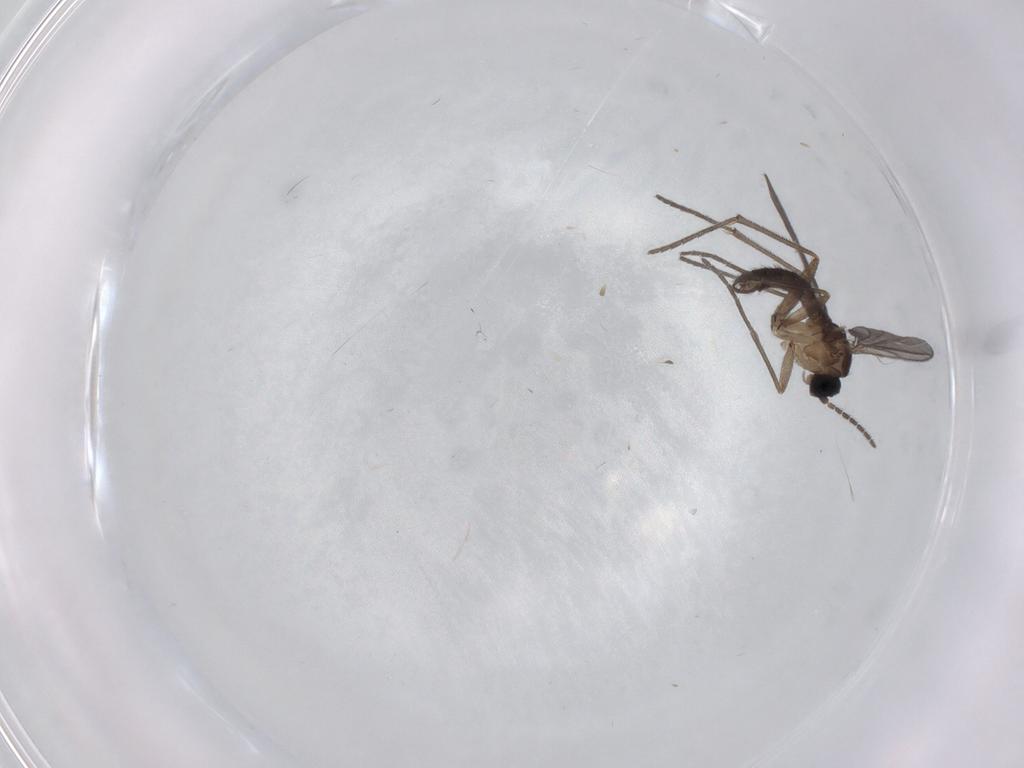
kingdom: Animalia
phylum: Arthropoda
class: Insecta
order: Diptera
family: Sciaridae
